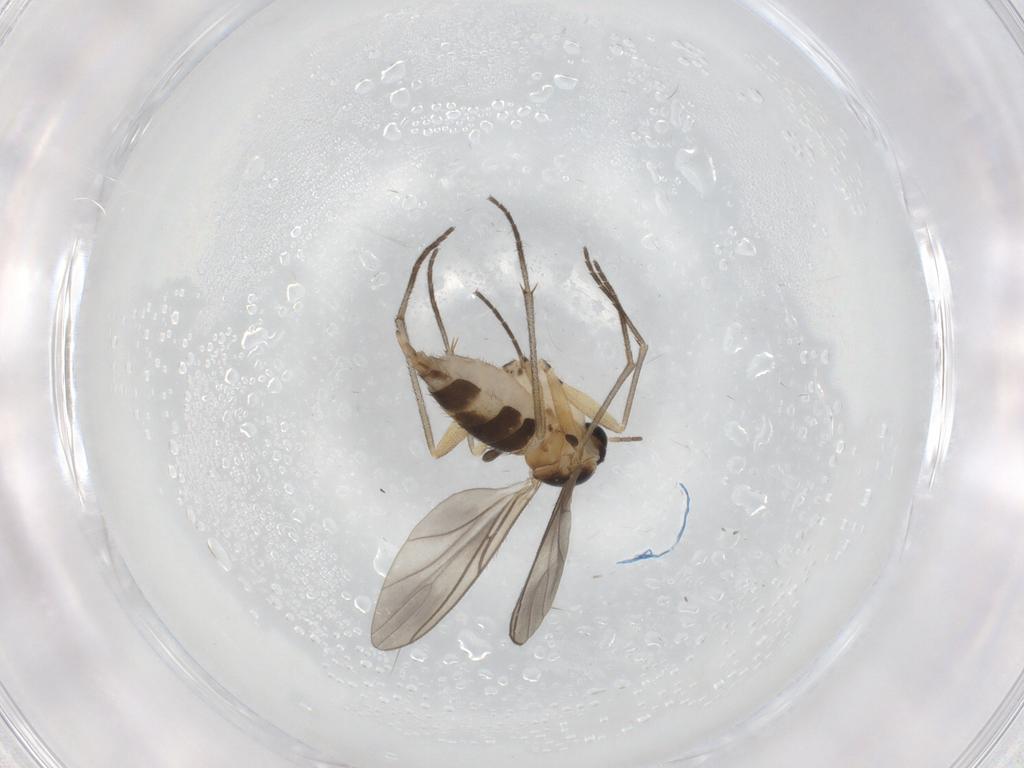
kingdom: Animalia
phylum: Arthropoda
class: Insecta
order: Diptera
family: Sciaridae
